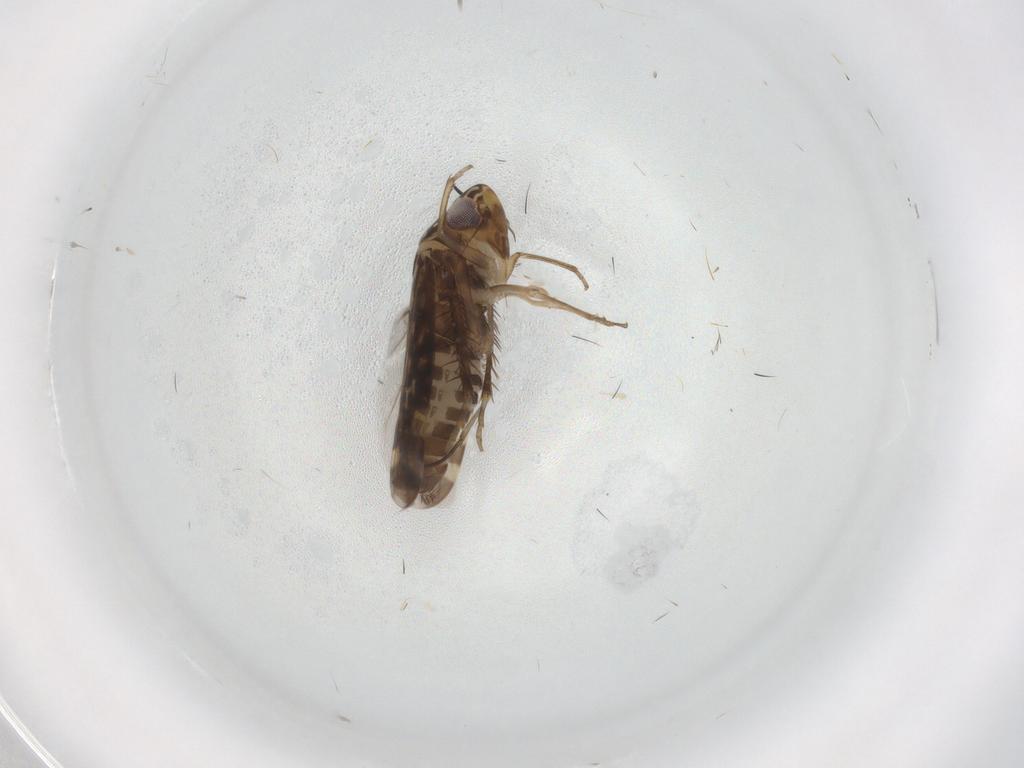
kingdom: Animalia
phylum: Arthropoda
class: Insecta
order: Hemiptera
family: Cicadellidae
